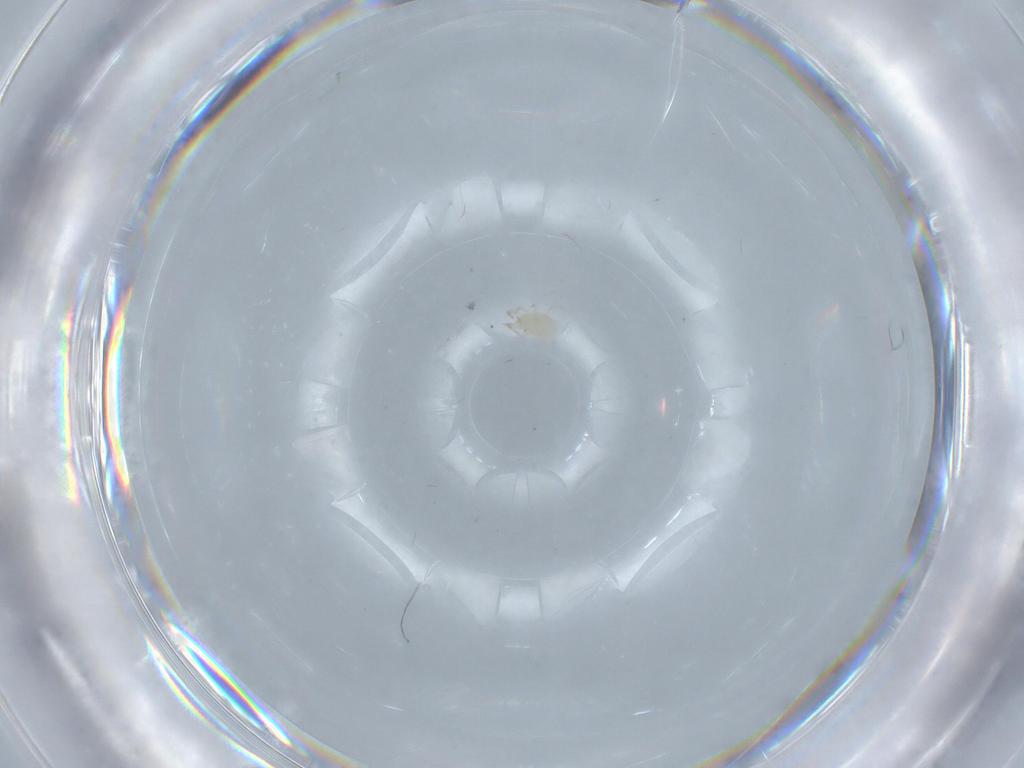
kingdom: Animalia
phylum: Arthropoda
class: Arachnida
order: Mesostigmata
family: Phytoseiidae
